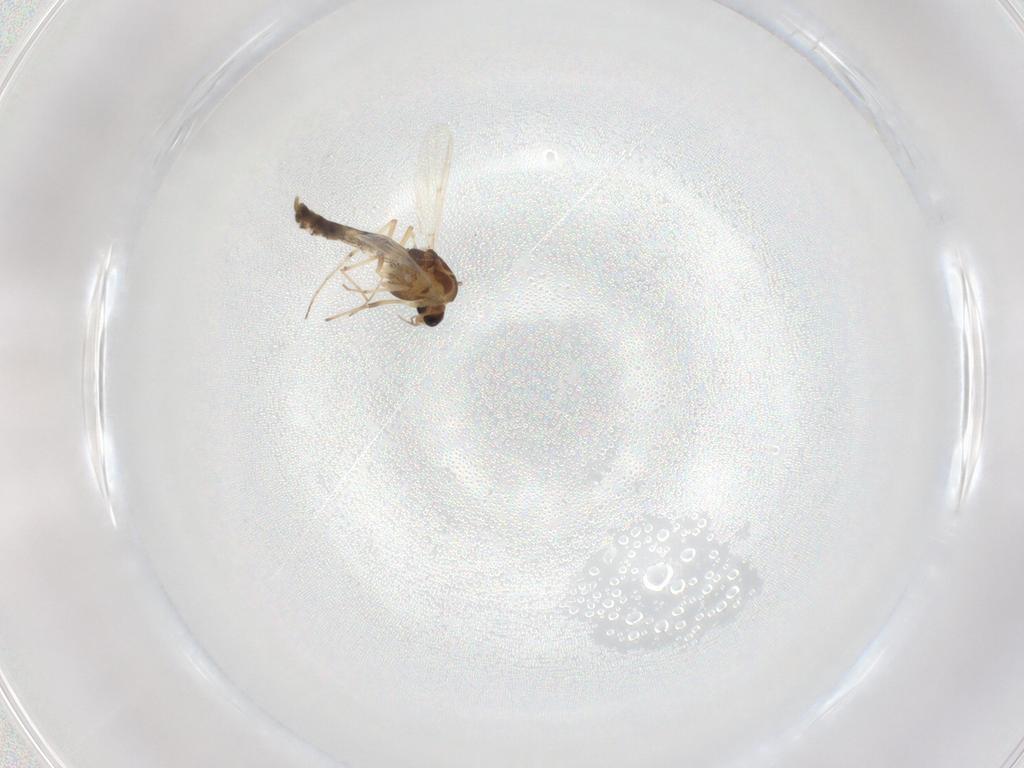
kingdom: Animalia
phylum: Arthropoda
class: Insecta
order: Diptera
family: Chironomidae
